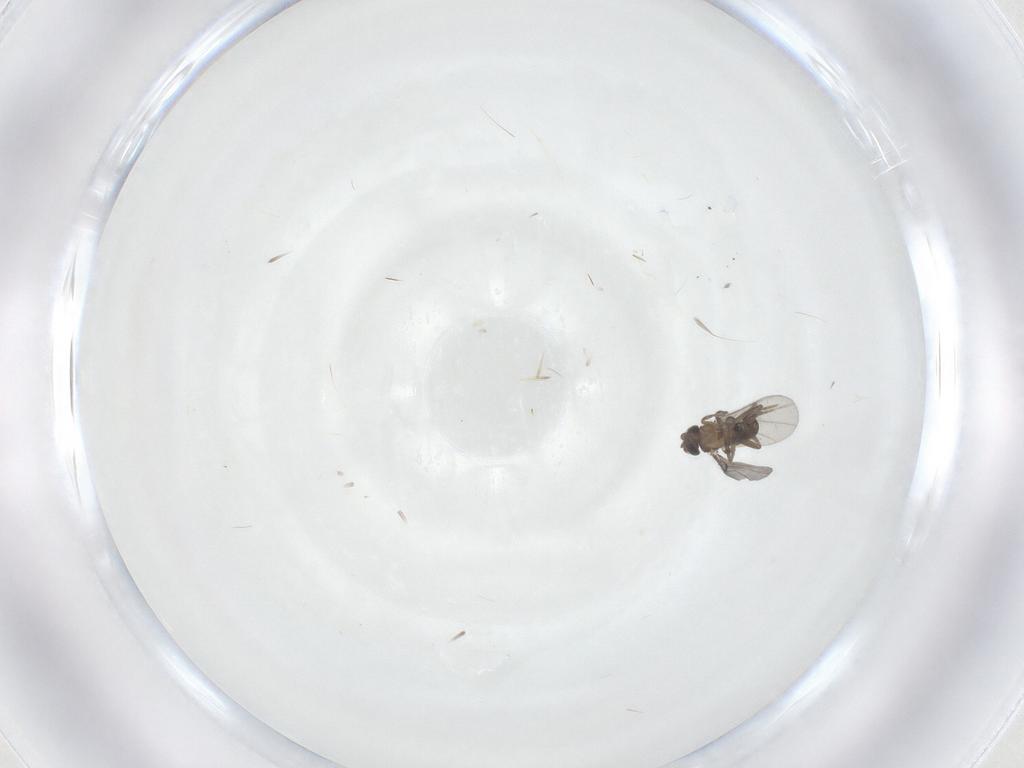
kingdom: Animalia
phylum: Arthropoda
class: Insecta
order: Diptera
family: Phoridae
